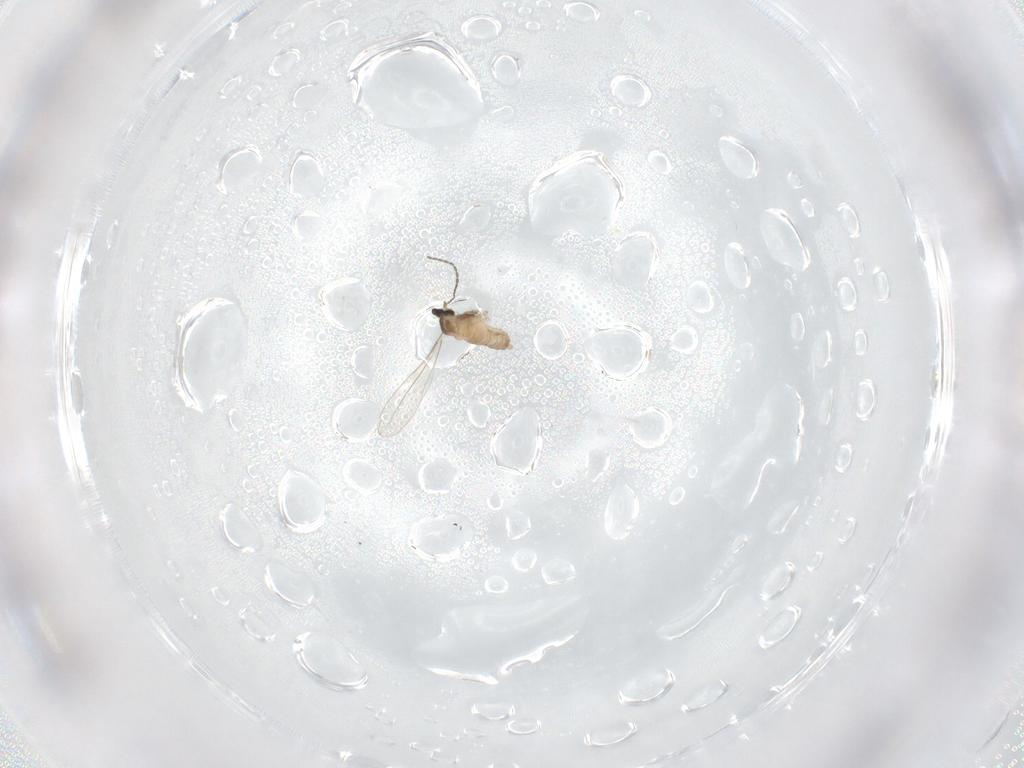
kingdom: Animalia
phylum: Arthropoda
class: Insecta
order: Diptera
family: Cecidomyiidae
